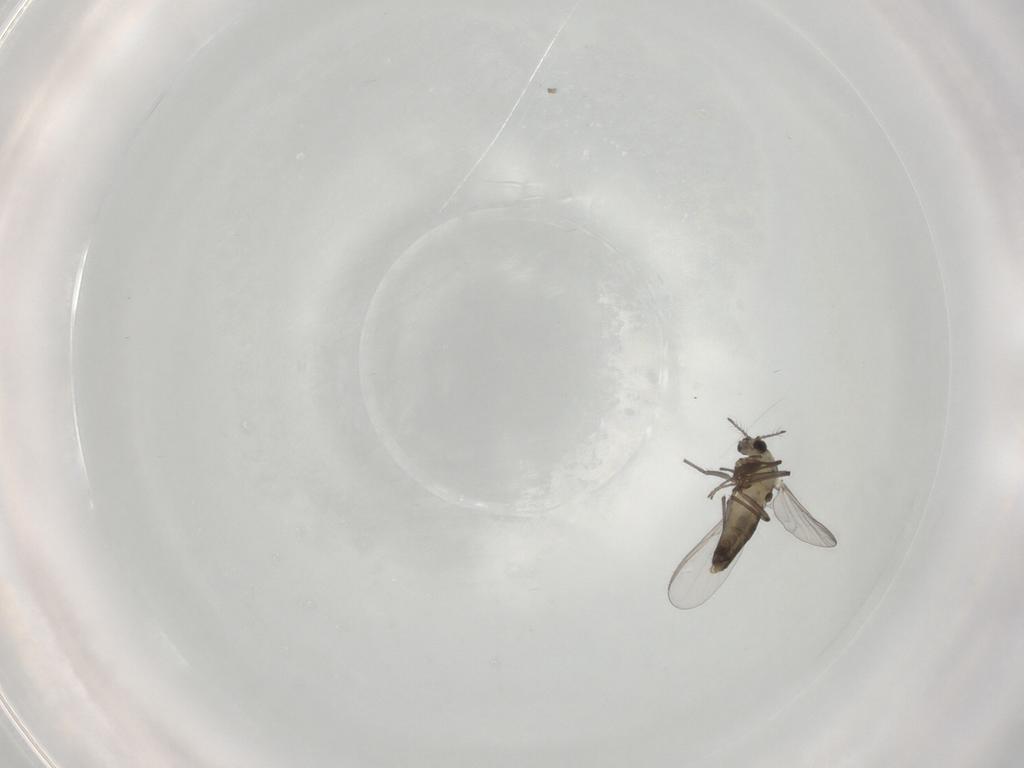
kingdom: Animalia
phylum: Arthropoda
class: Insecta
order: Diptera
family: Chironomidae
